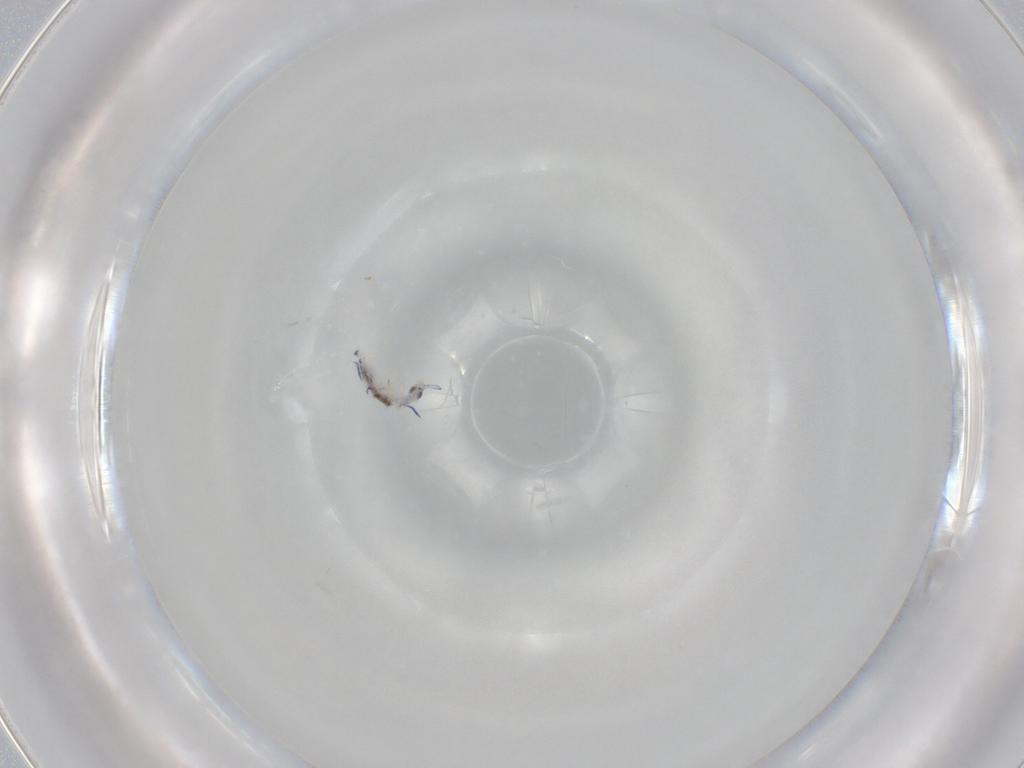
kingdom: Animalia
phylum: Arthropoda
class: Collembola
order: Entomobryomorpha
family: Entomobryidae
